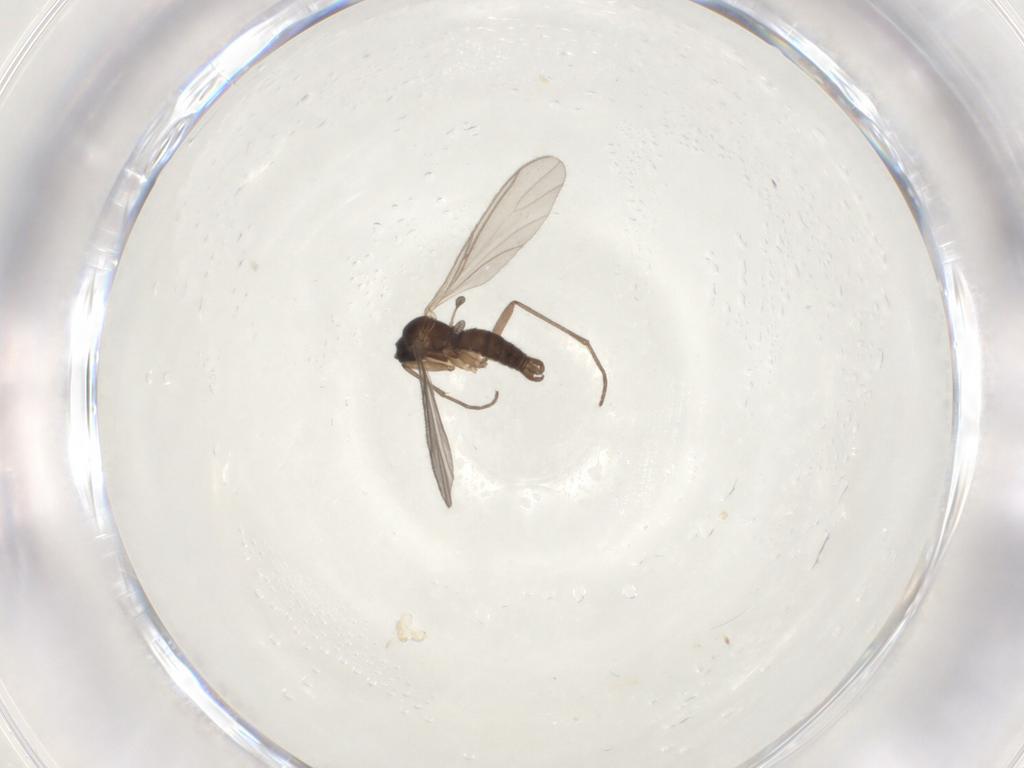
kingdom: Animalia
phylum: Arthropoda
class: Insecta
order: Diptera
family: Sciaridae
